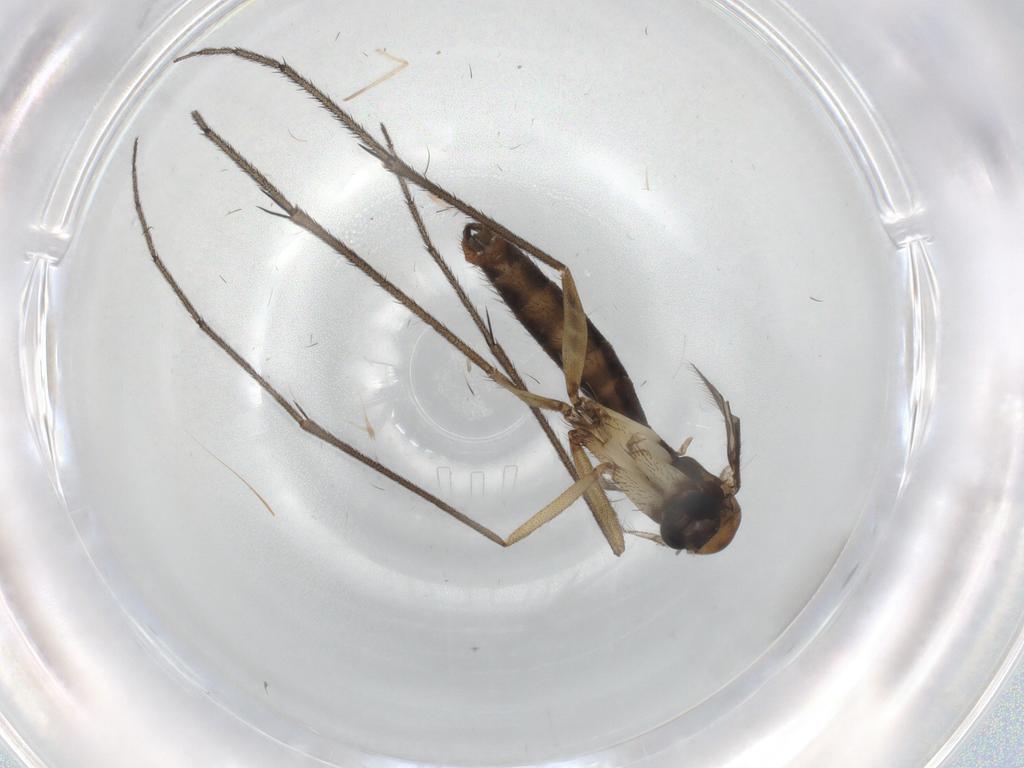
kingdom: Animalia
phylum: Arthropoda
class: Insecta
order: Diptera
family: Chironomidae
